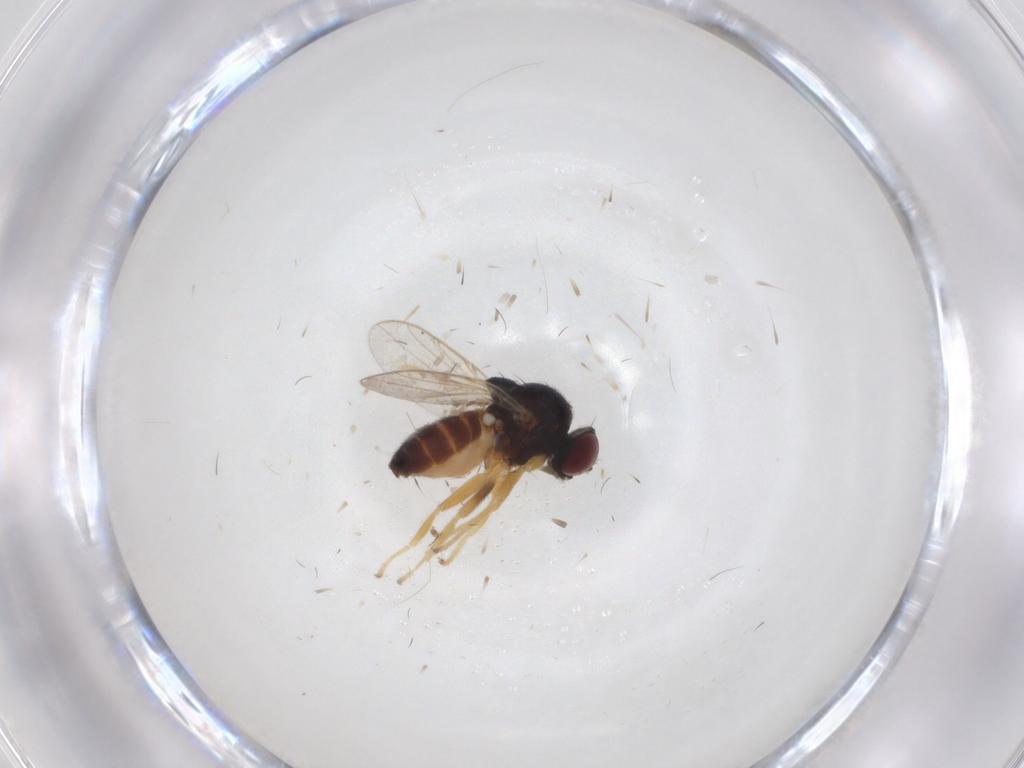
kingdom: Animalia
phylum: Arthropoda
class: Insecta
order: Diptera
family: Chloropidae
